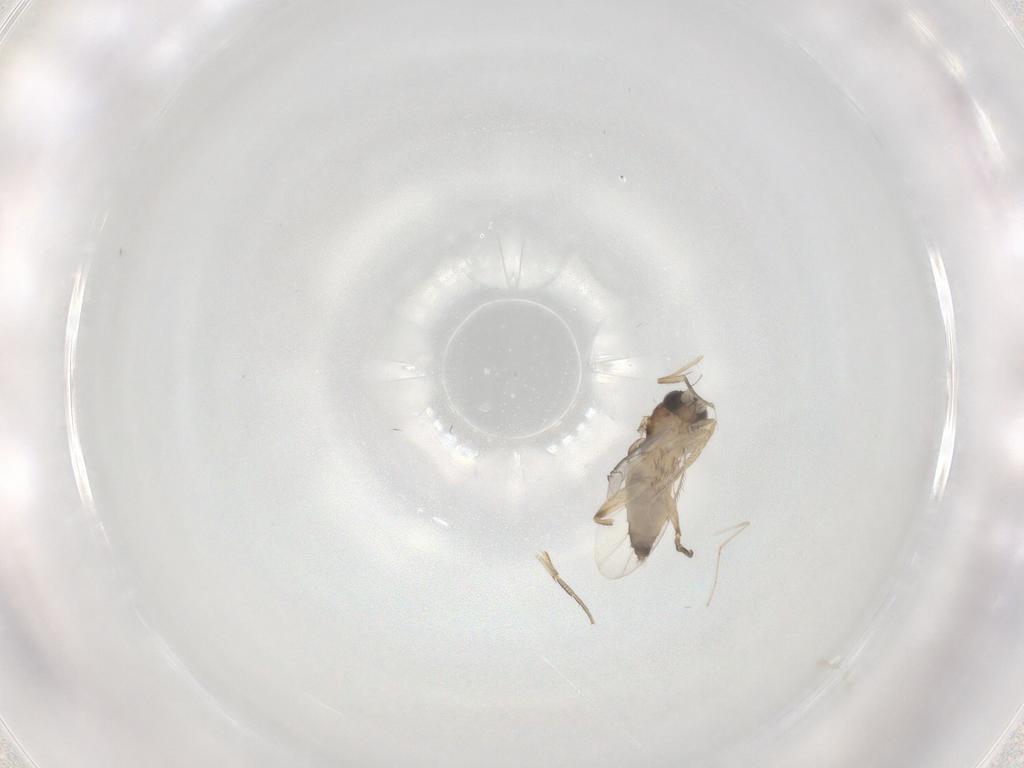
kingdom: Animalia
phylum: Arthropoda
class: Insecta
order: Diptera
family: Phoridae
